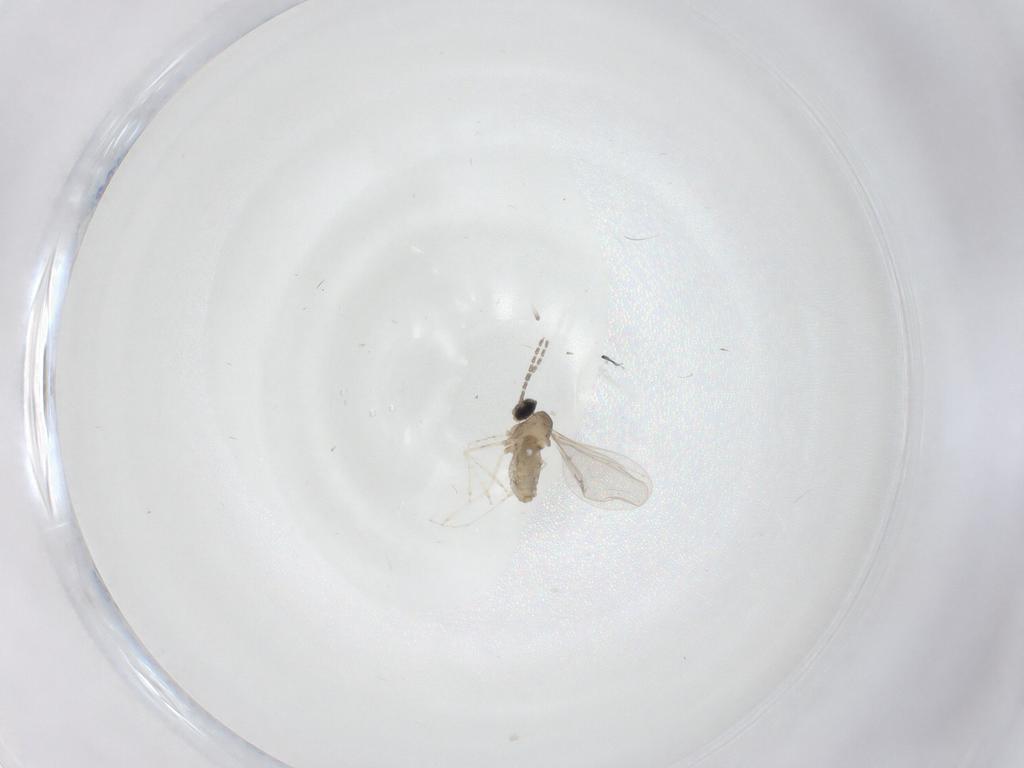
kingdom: Animalia
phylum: Arthropoda
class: Insecta
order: Diptera
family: Cecidomyiidae
